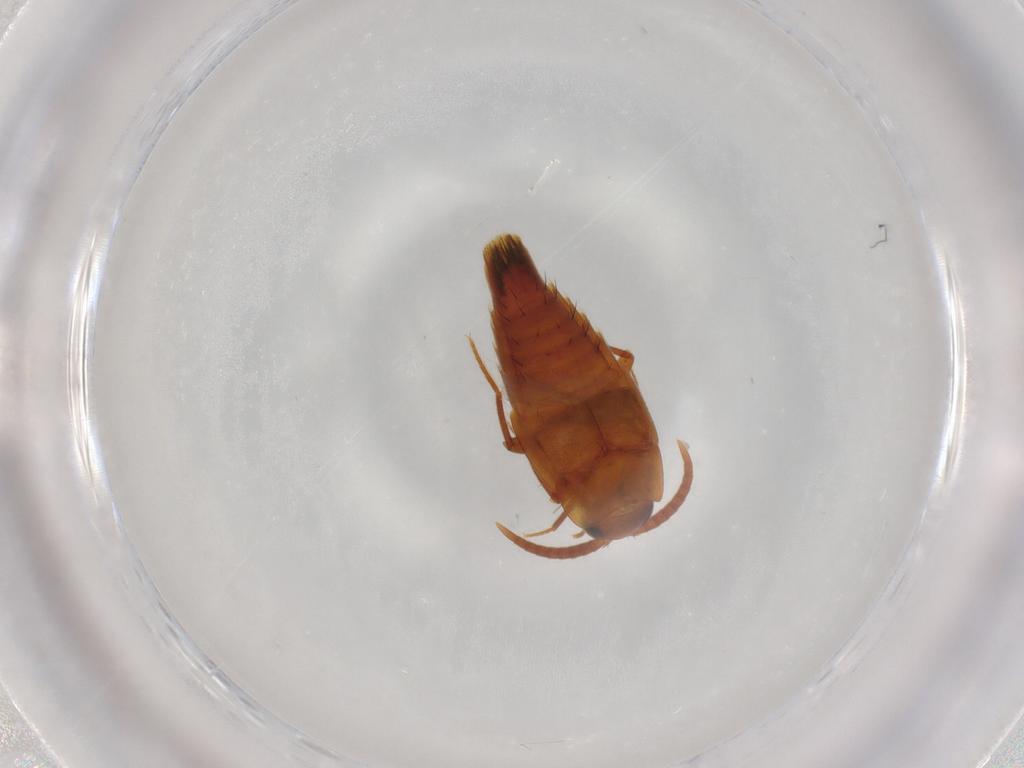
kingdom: Animalia
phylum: Arthropoda
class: Insecta
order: Coleoptera
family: Staphylinidae
